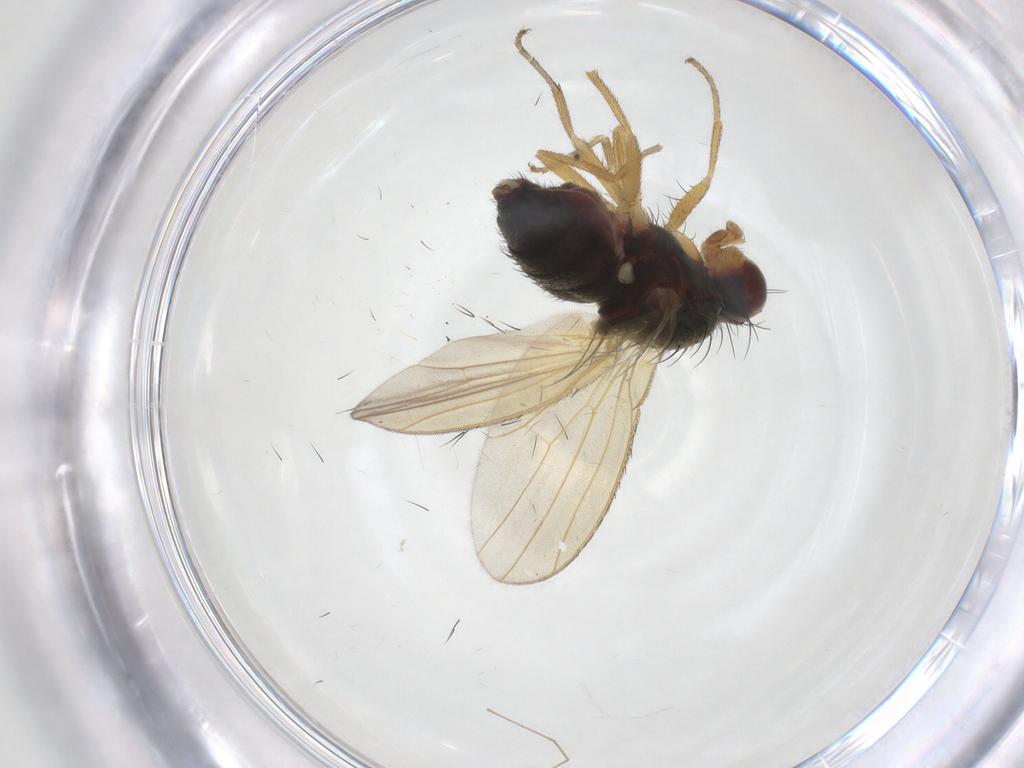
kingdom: Animalia
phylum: Arthropoda
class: Insecta
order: Diptera
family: Heleomyzidae
